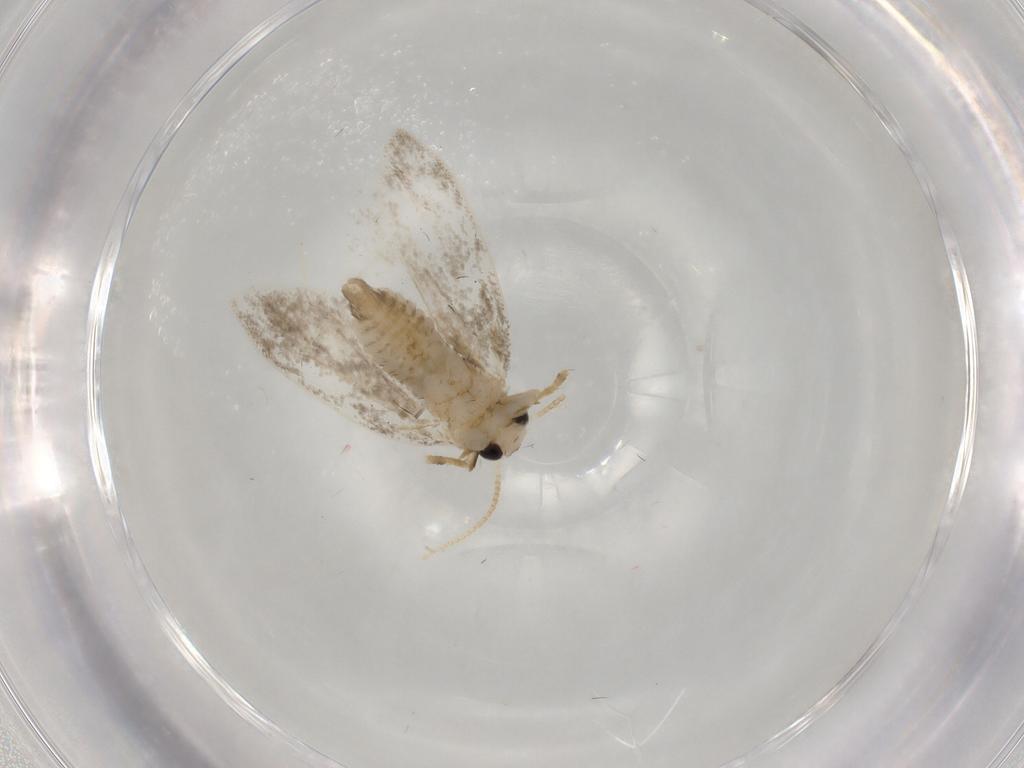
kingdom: Animalia
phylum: Arthropoda
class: Insecta
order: Lepidoptera
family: Psychidae
